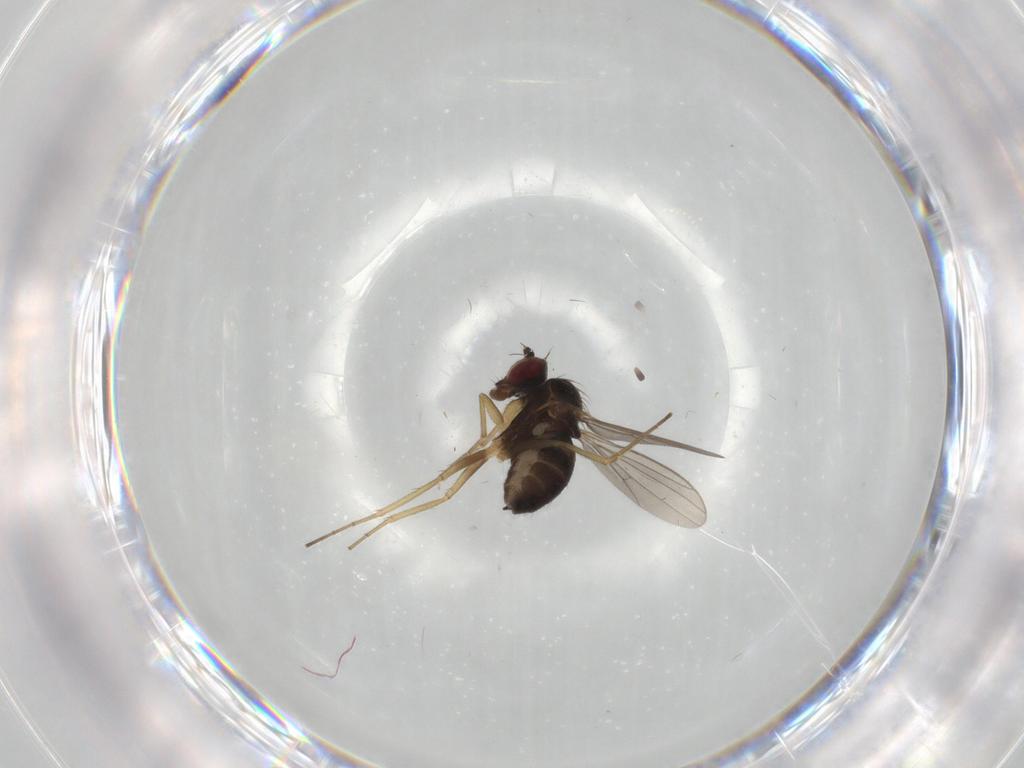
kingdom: Animalia
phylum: Arthropoda
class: Insecta
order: Diptera
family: Dolichopodidae
